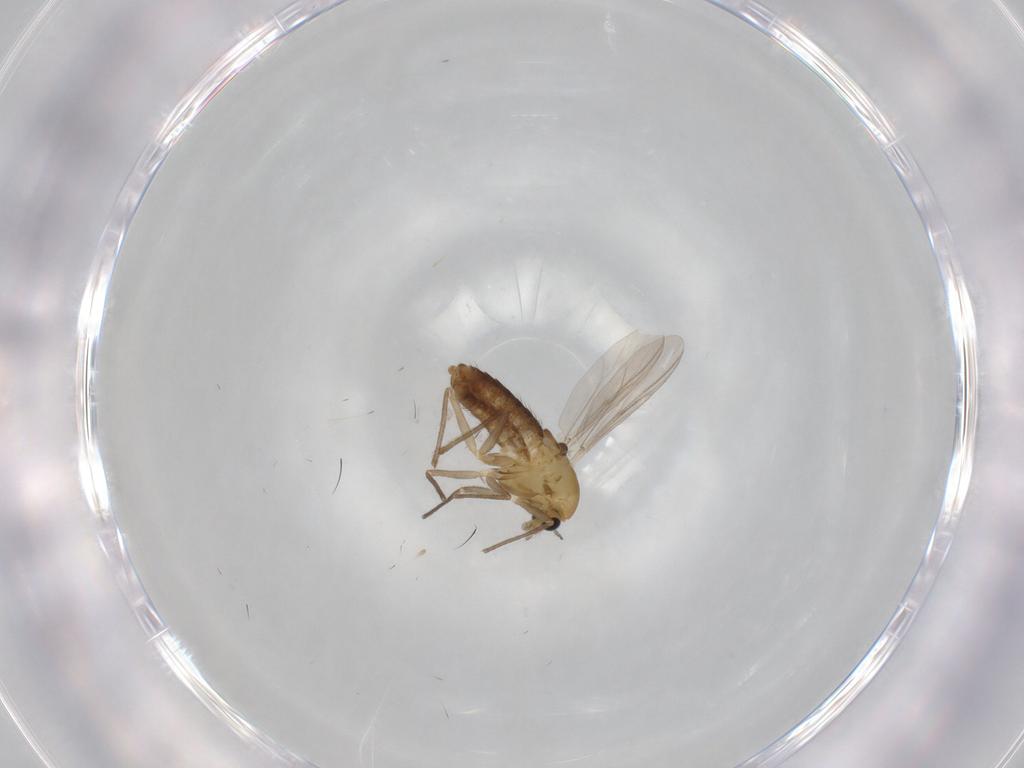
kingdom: Animalia
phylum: Arthropoda
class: Insecta
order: Diptera
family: Chironomidae
